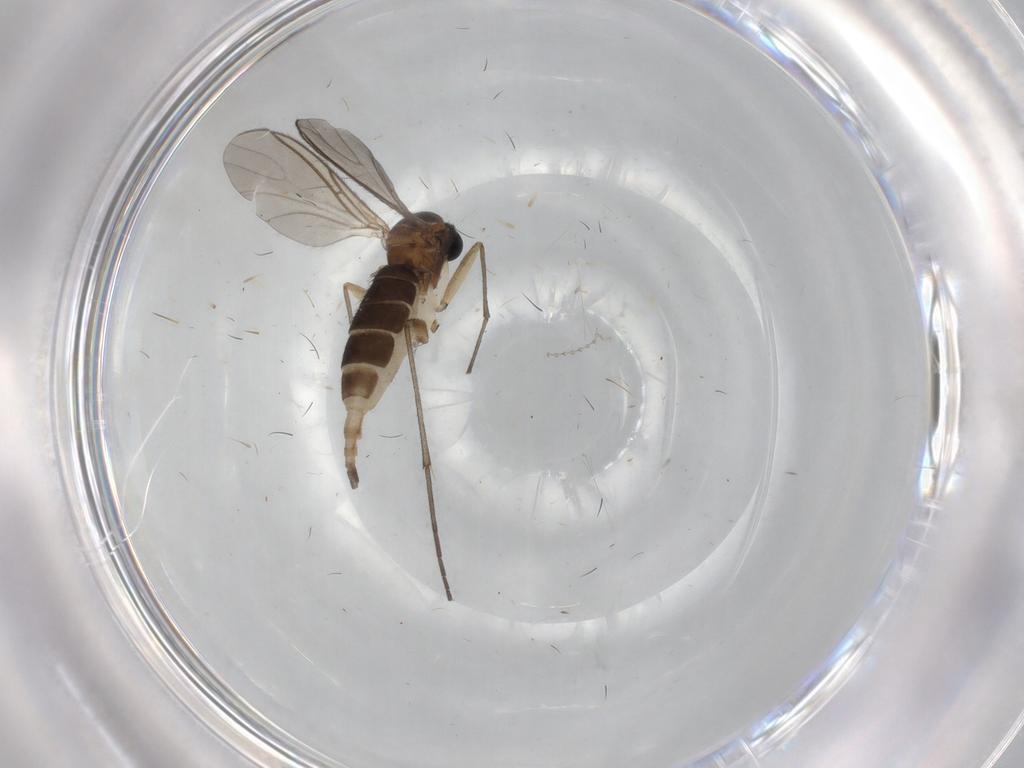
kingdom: Animalia
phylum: Arthropoda
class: Insecta
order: Diptera
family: Sciaridae
